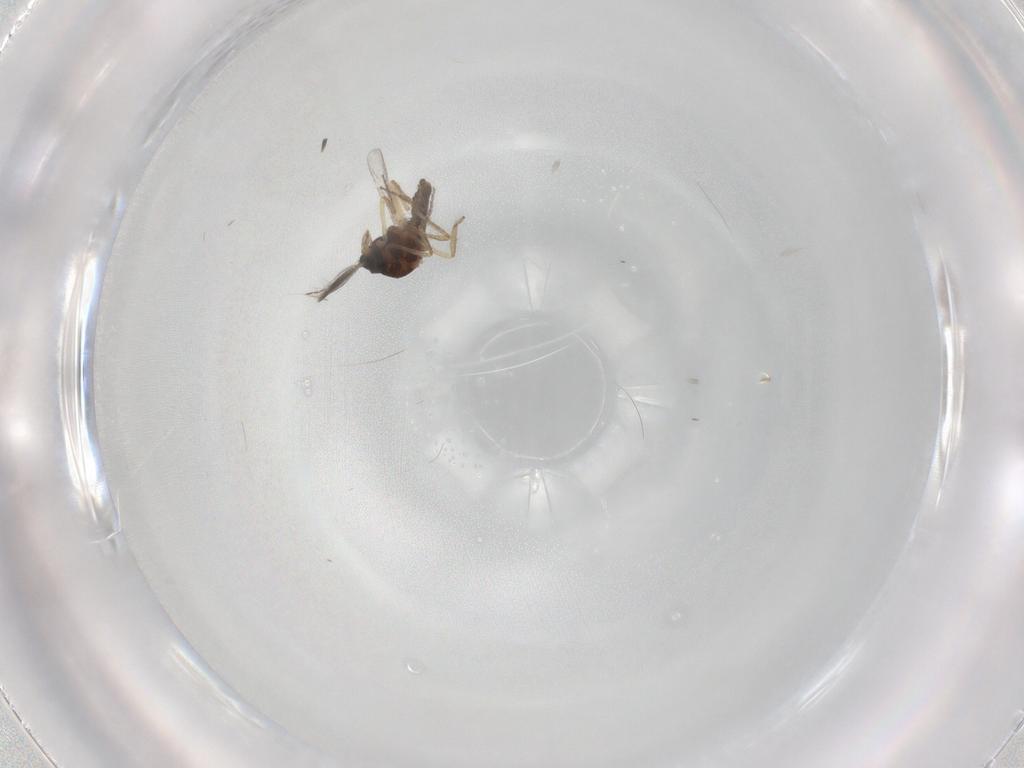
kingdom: Animalia
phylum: Arthropoda
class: Insecta
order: Diptera
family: Ceratopogonidae
